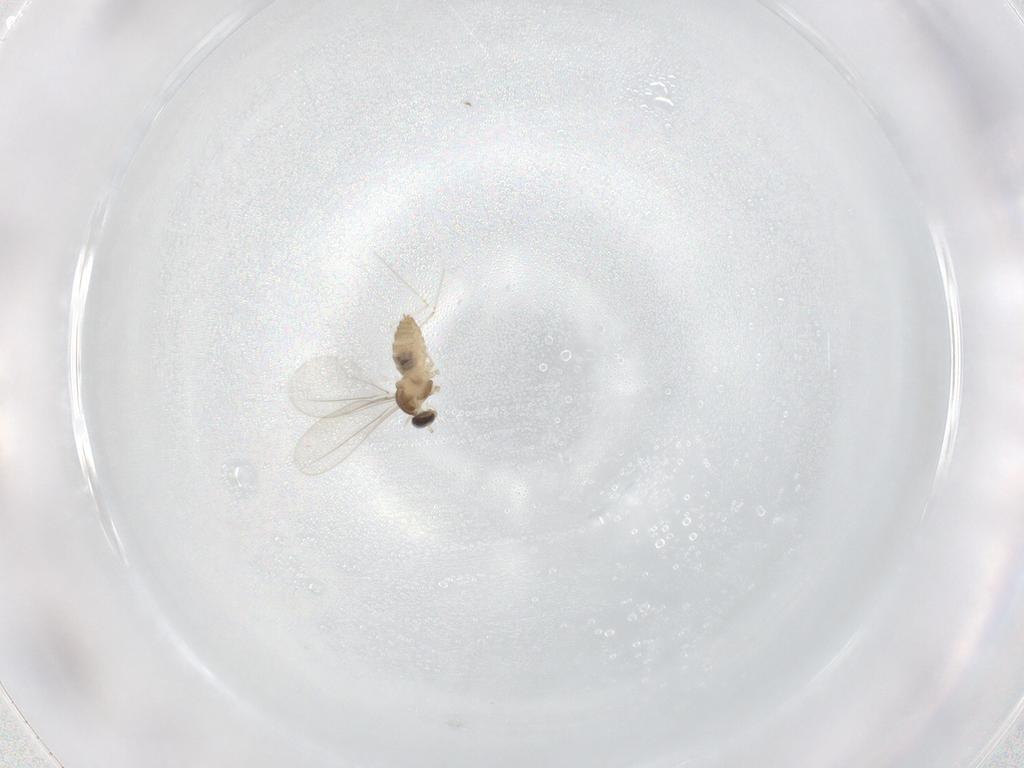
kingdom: Animalia
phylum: Arthropoda
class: Insecta
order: Diptera
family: Cecidomyiidae
